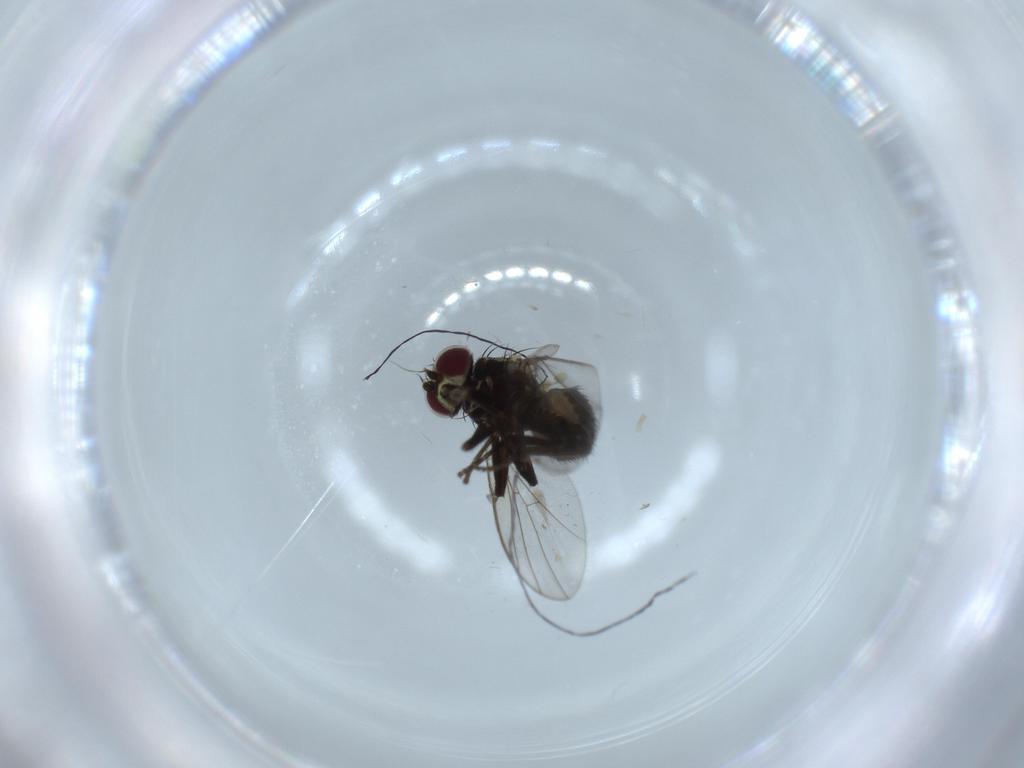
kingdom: Animalia
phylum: Arthropoda
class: Insecta
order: Diptera
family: Agromyzidae
